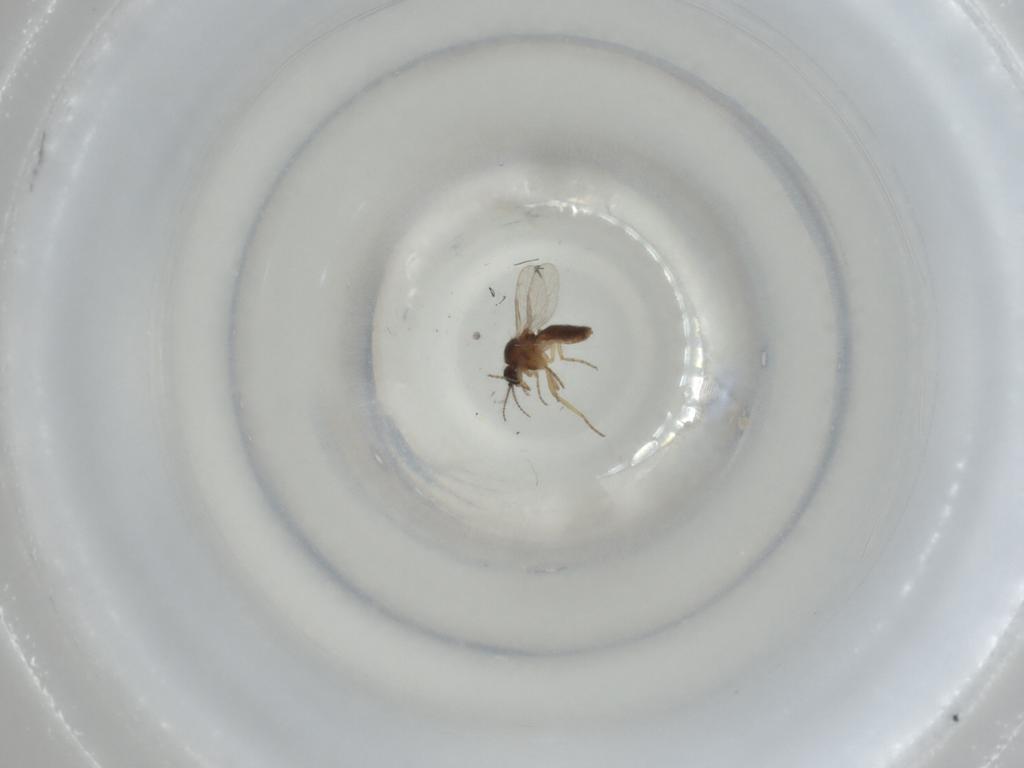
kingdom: Animalia
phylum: Arthropoda
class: Insecta
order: Diptera
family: Ceratopogonidae
